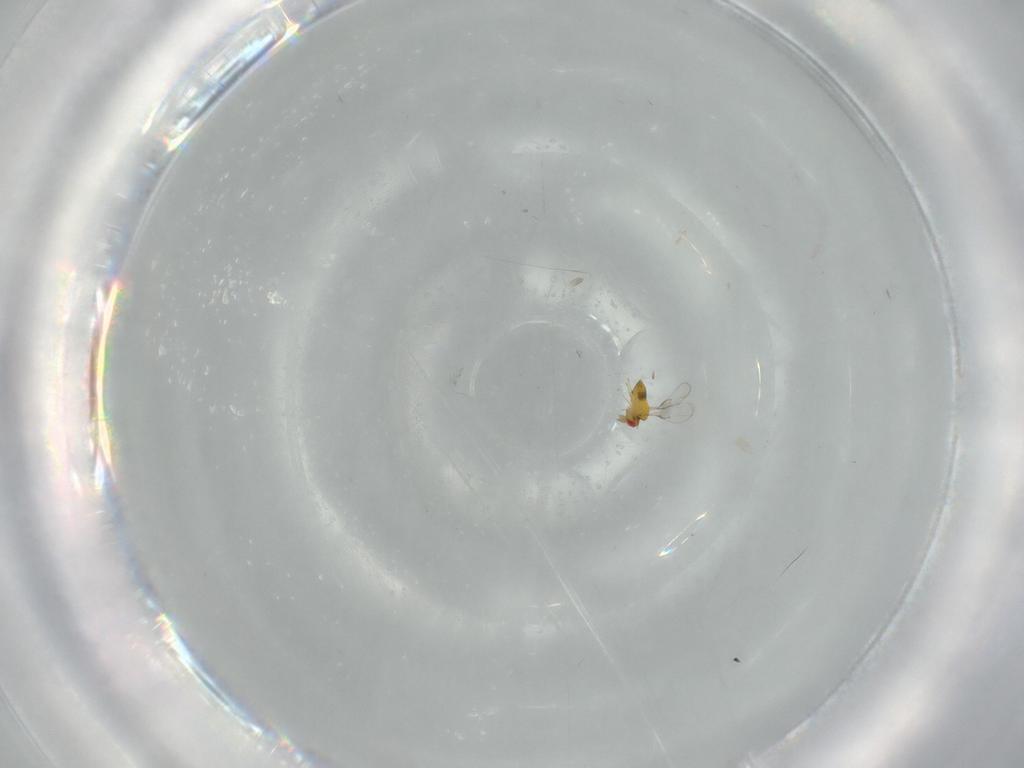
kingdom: Animalia
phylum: Arthropoda
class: Insecta
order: Hymenoptera
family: Trichogrammatidae
